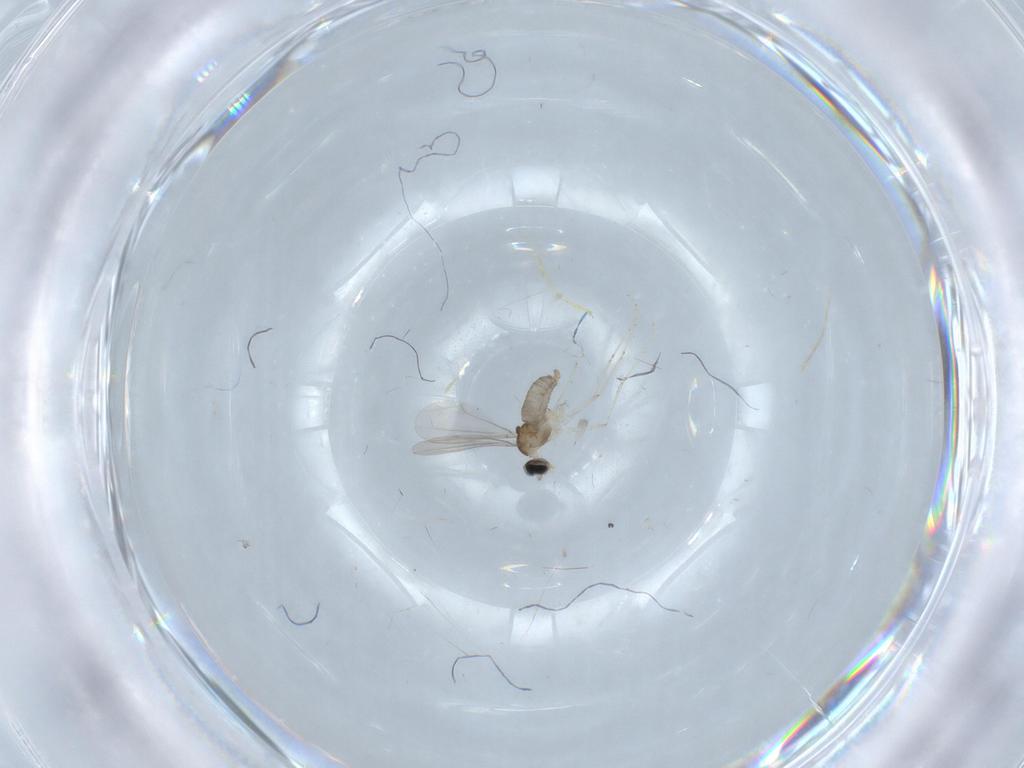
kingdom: Animalia
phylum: Arthropoda
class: Insecta
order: Diptera
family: Cecidomyiidae
